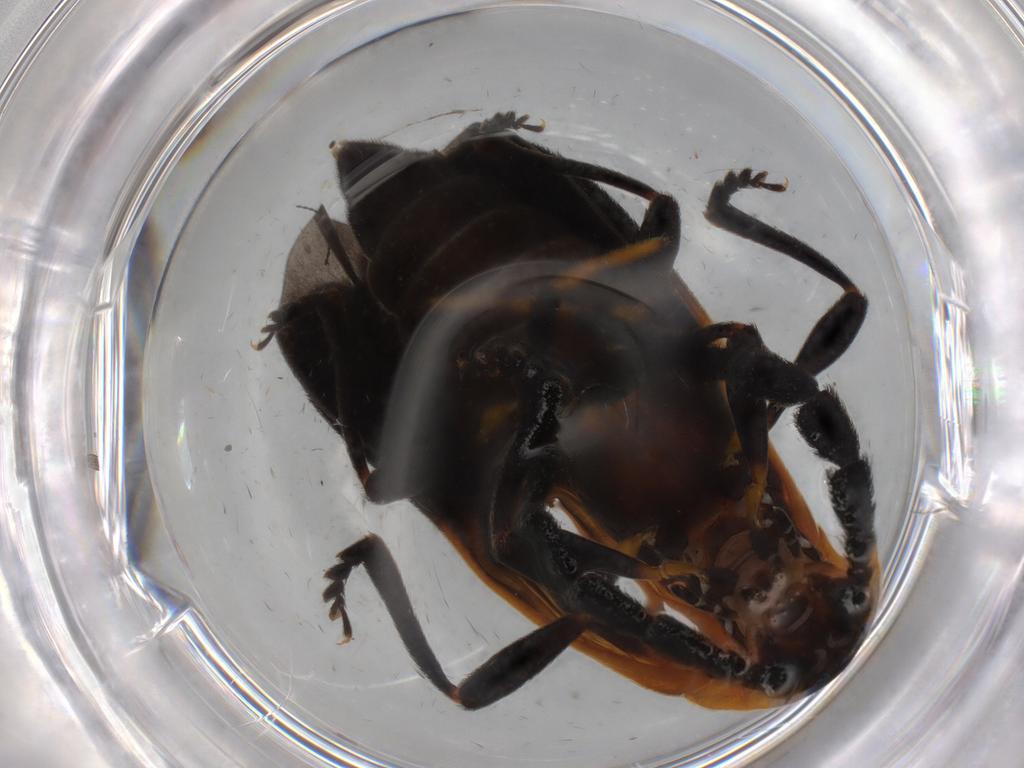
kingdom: Animalia
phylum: Arthropoda
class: Insecta
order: Coleoptera
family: Lycidae
